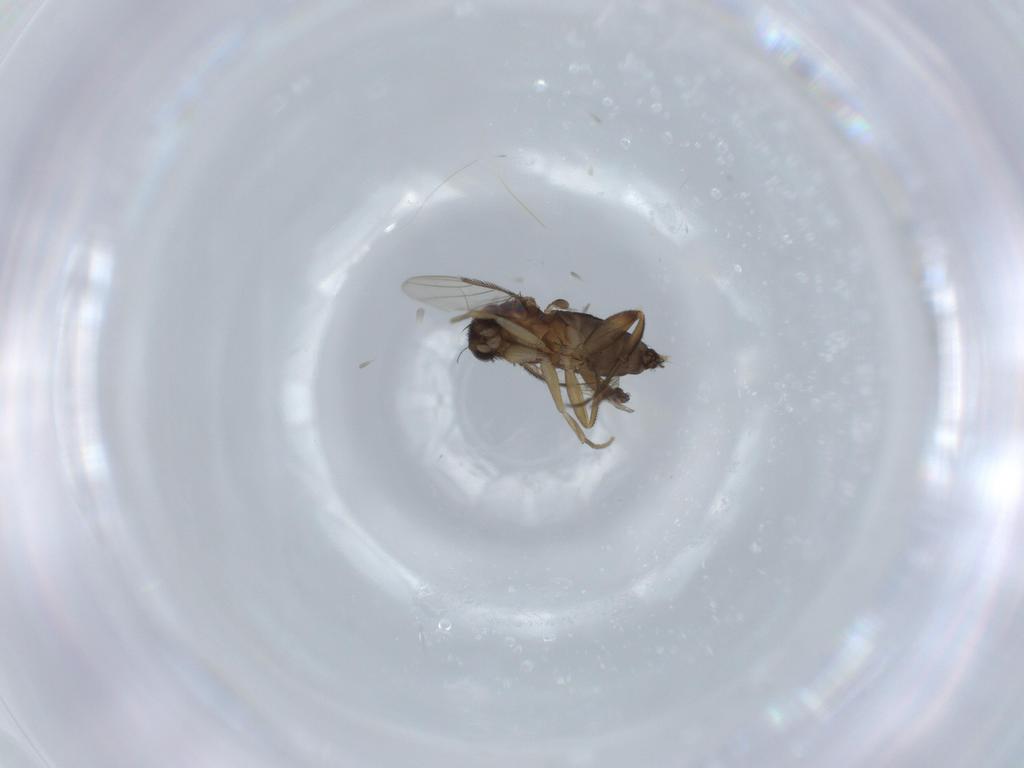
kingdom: Animalia
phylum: Arthropoda
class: Insecta
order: Diptera
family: Phoridae
